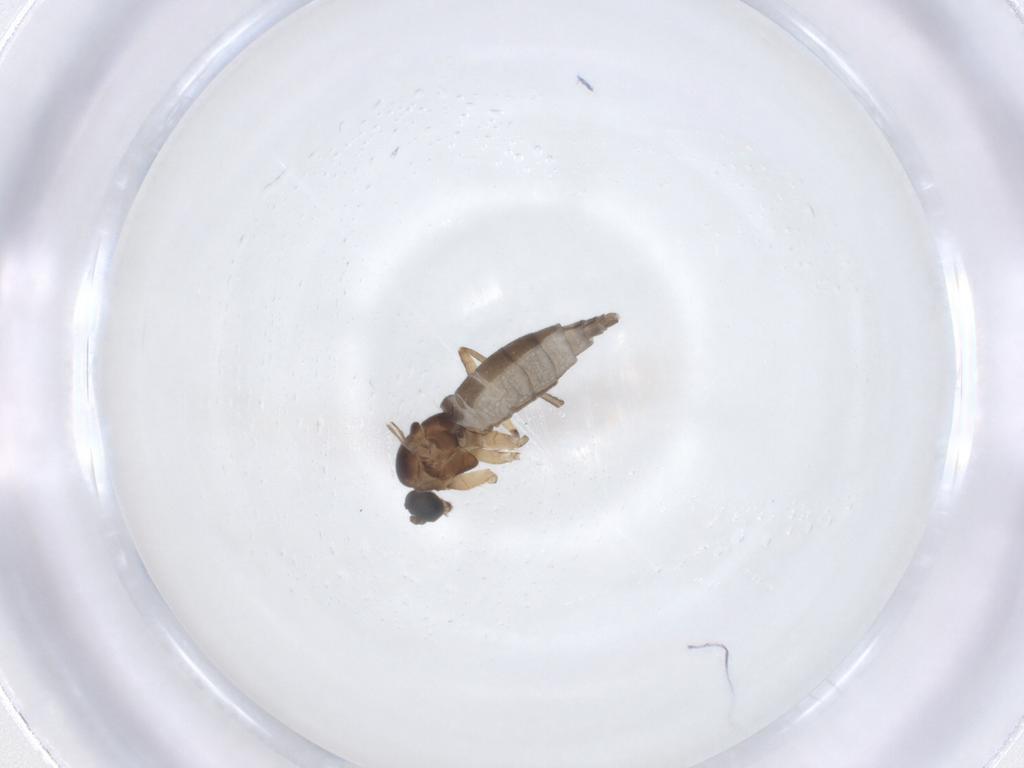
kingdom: Animalia
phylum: Arthropoda
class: Insecta
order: Diptera
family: Sciaridae
